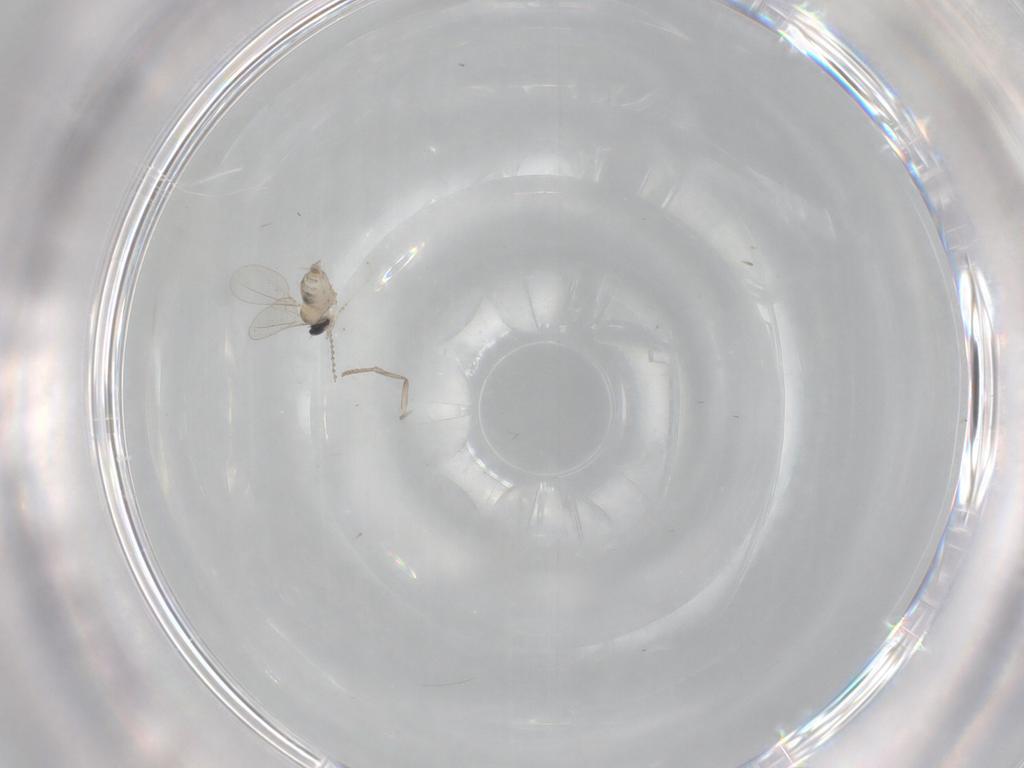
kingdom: Animalia
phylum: Arthropoda
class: Insecta
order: Diptera
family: Cecidomyiidae
